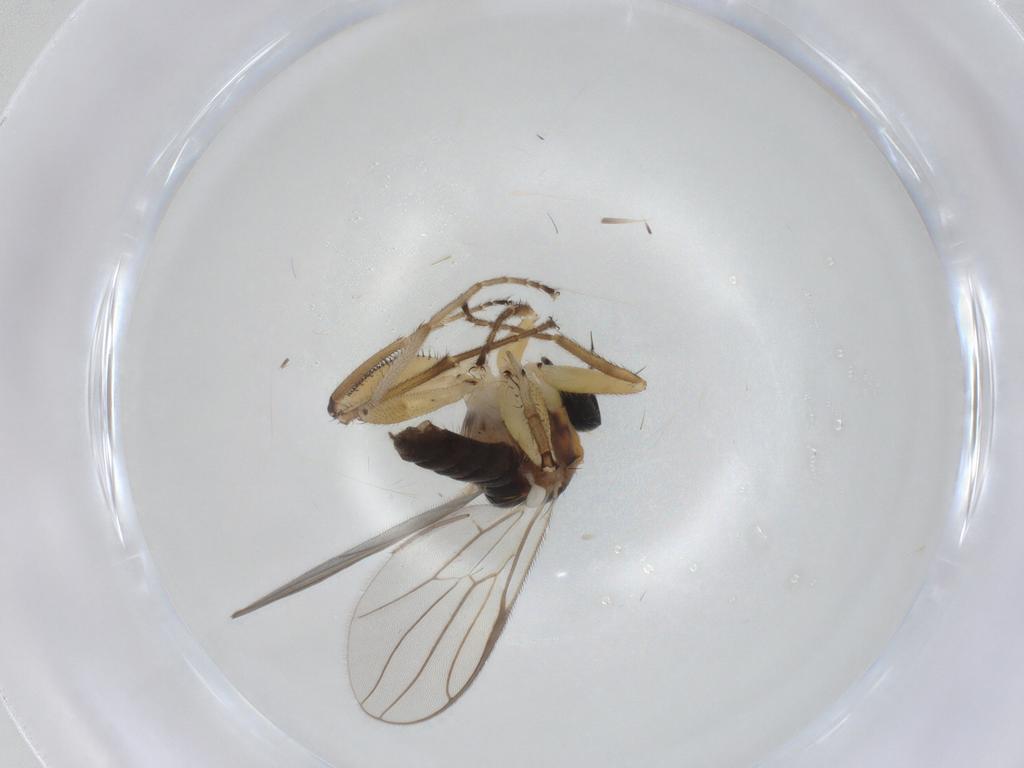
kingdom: Animalia
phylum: Arthropoda
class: Insecta
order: Diptera
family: Hybotidae
